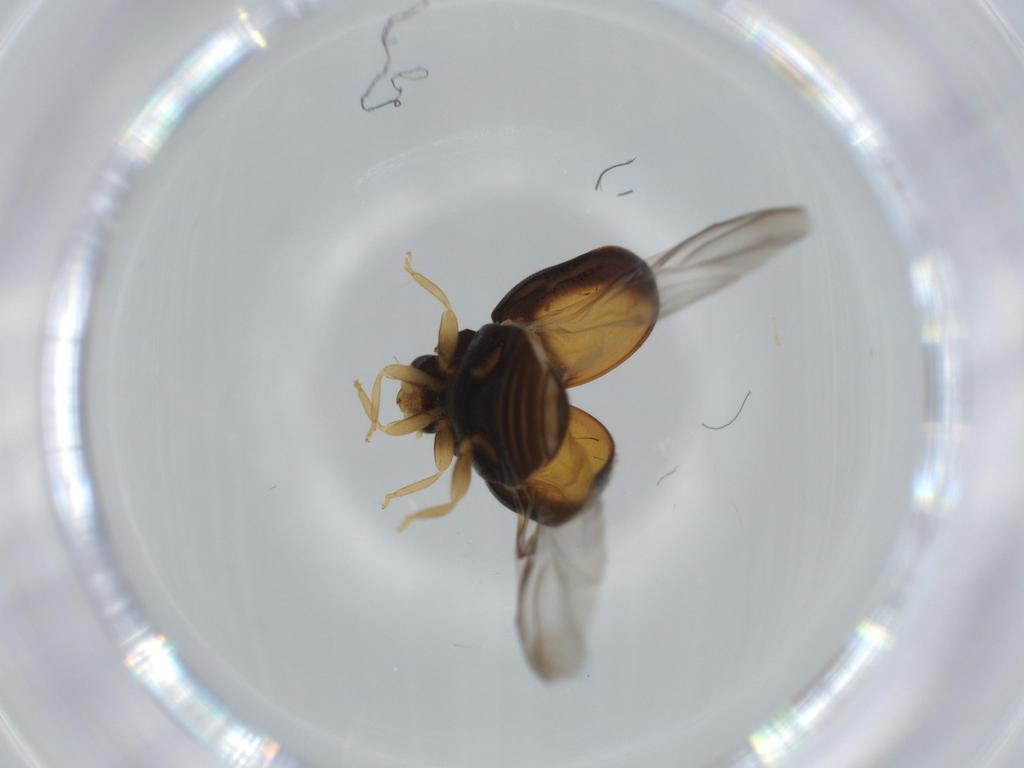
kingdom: Animalia
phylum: Arthropoda
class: Insecta
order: Coleoptera
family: Coccinellidae
